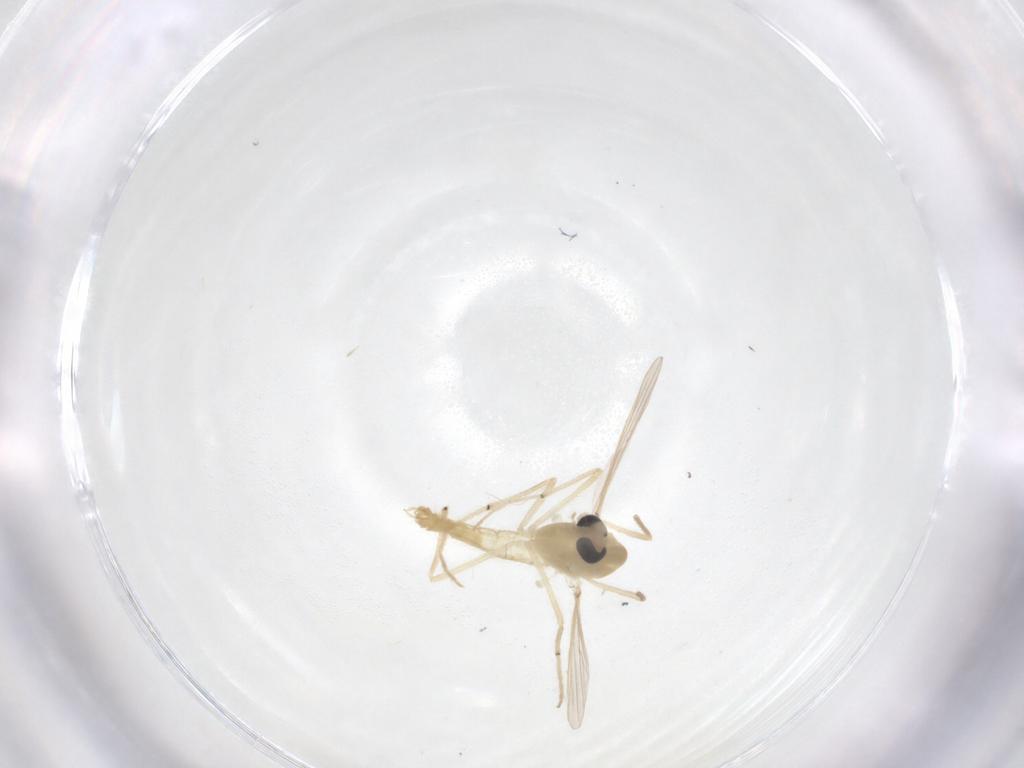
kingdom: Animalia
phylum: Arthropoda
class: Insecta
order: Diptera
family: Chironomidae
